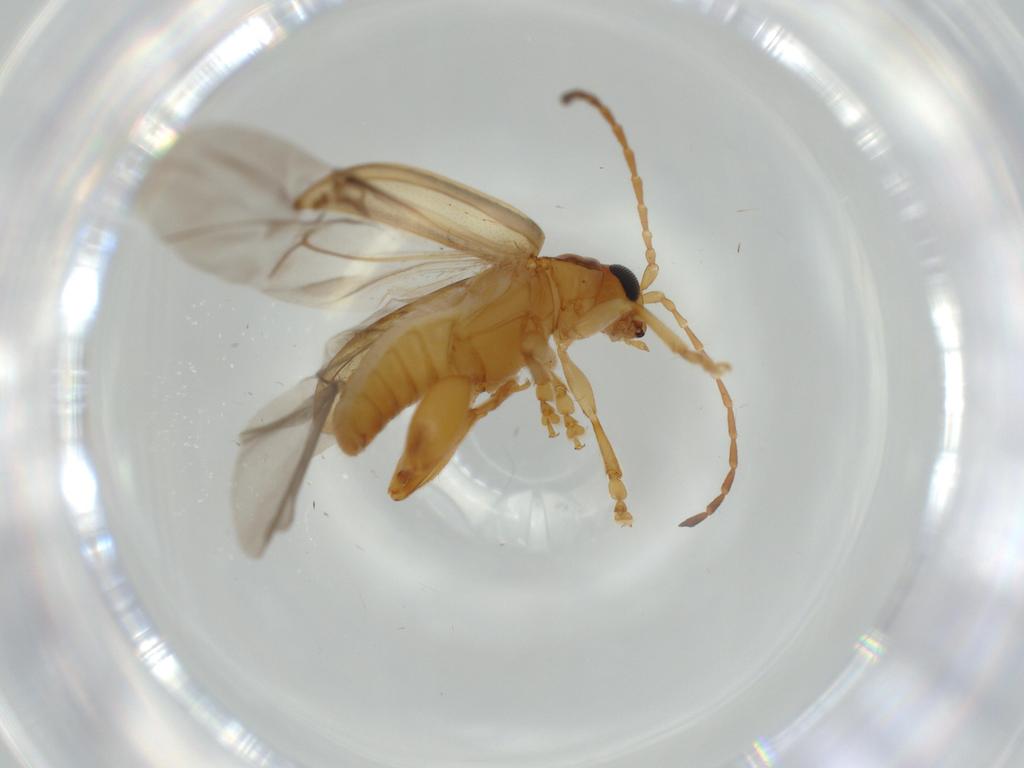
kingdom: Animalia
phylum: Arthropoda
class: Insecta
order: Coleoptera
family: Chrysomelidae
